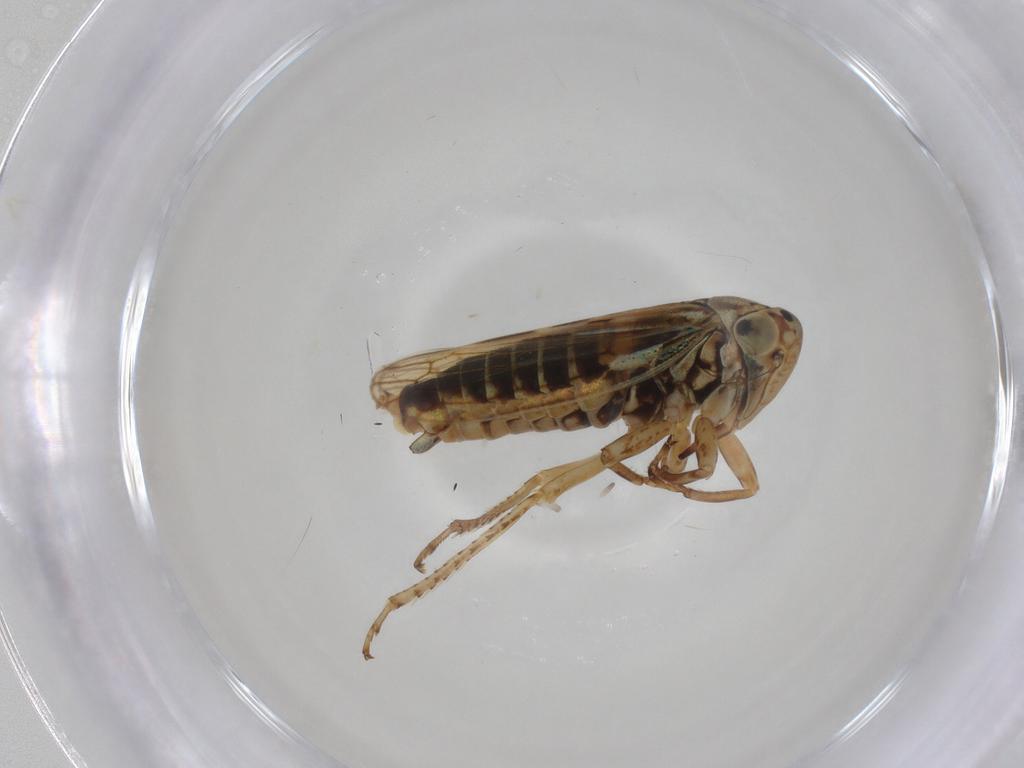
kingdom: Animalia
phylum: Arthropoda
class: Insecta
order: Hemiptera
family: Cicadellidae
